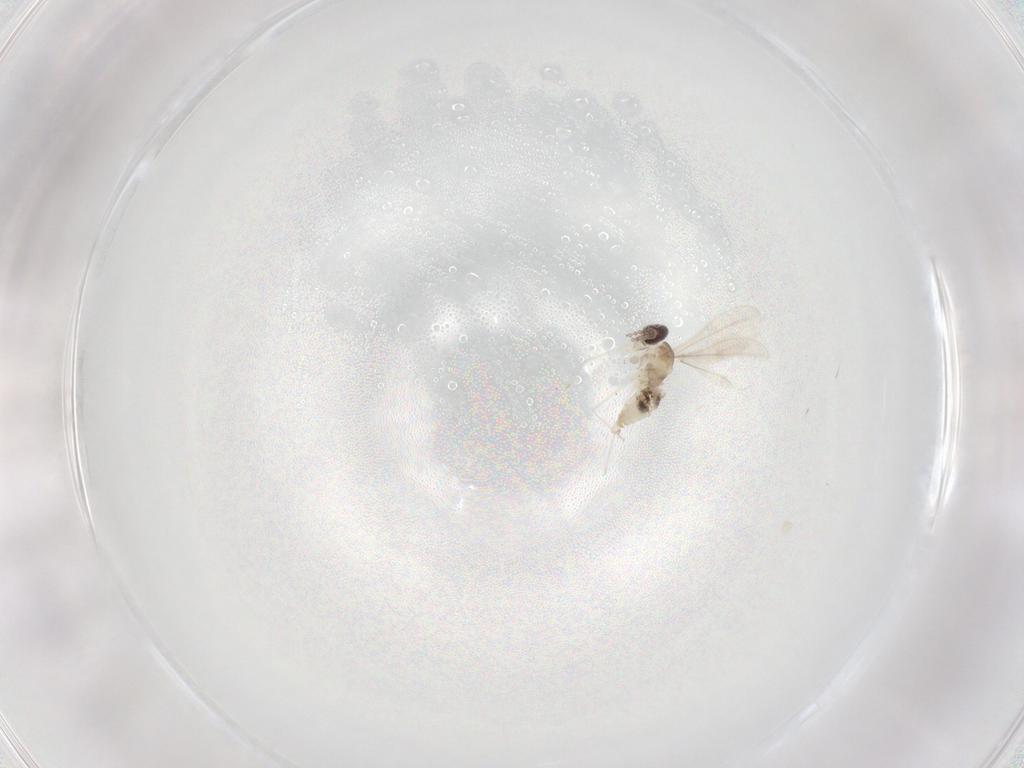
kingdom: Animalia
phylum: Arthropoda
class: Insecta
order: Diptera
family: Cecidomyiidae
